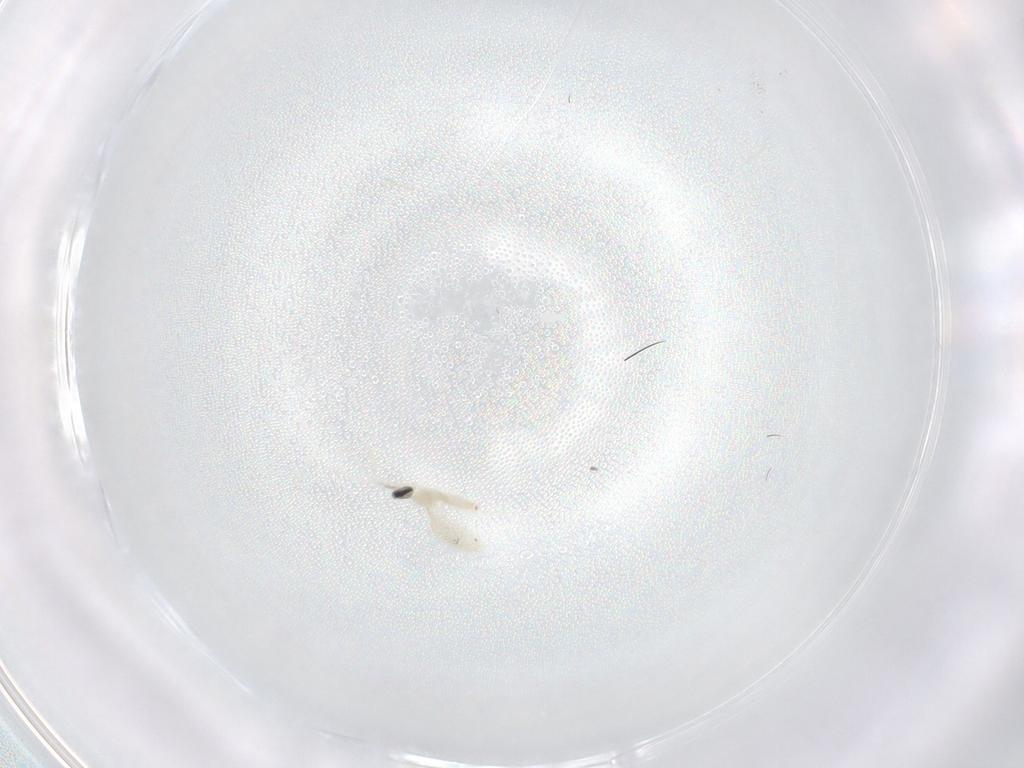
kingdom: Animalia
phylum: Arthropoda
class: Insecta
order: Diptera
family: Cecidomyiidae
